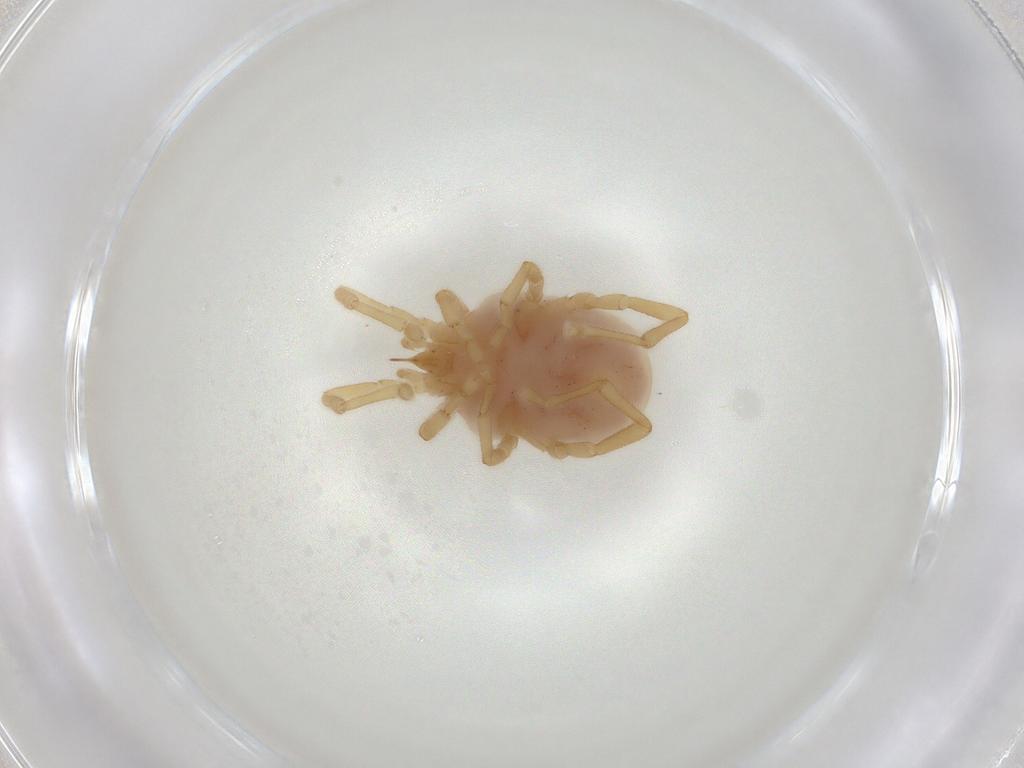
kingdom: Animalia
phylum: Arthropoda
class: Arachnida
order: Trombidiformes
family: Erythraeidae
